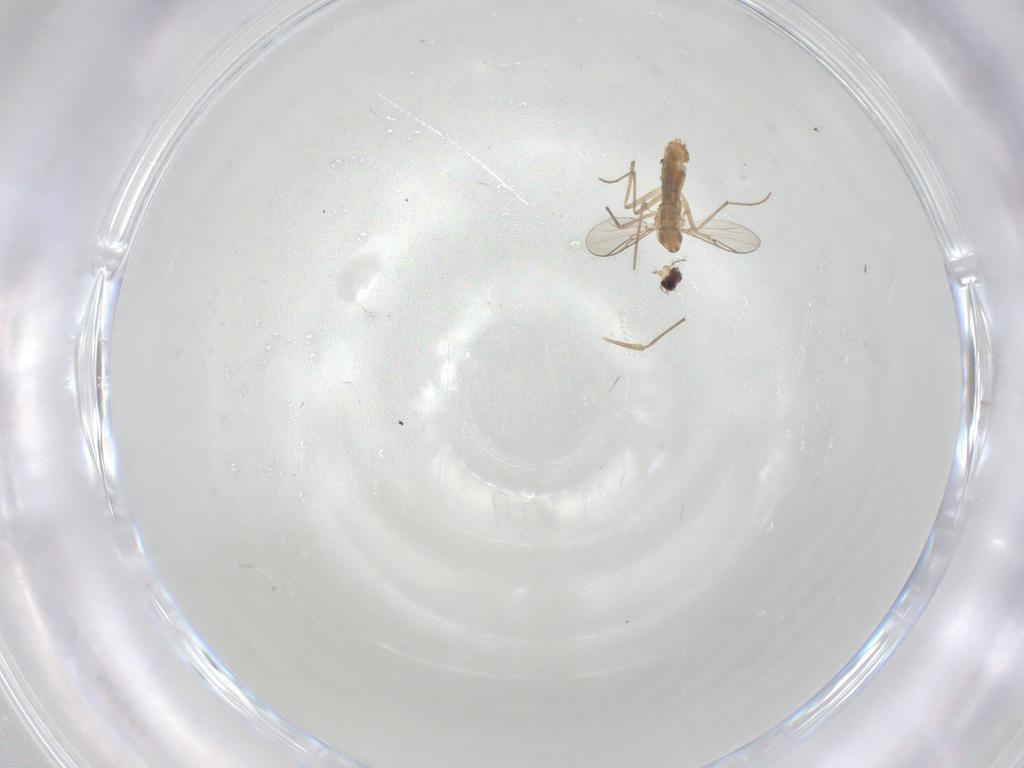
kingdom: Animalia
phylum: Arthropoda
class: Insecta
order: Diptera
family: Chironomidae
